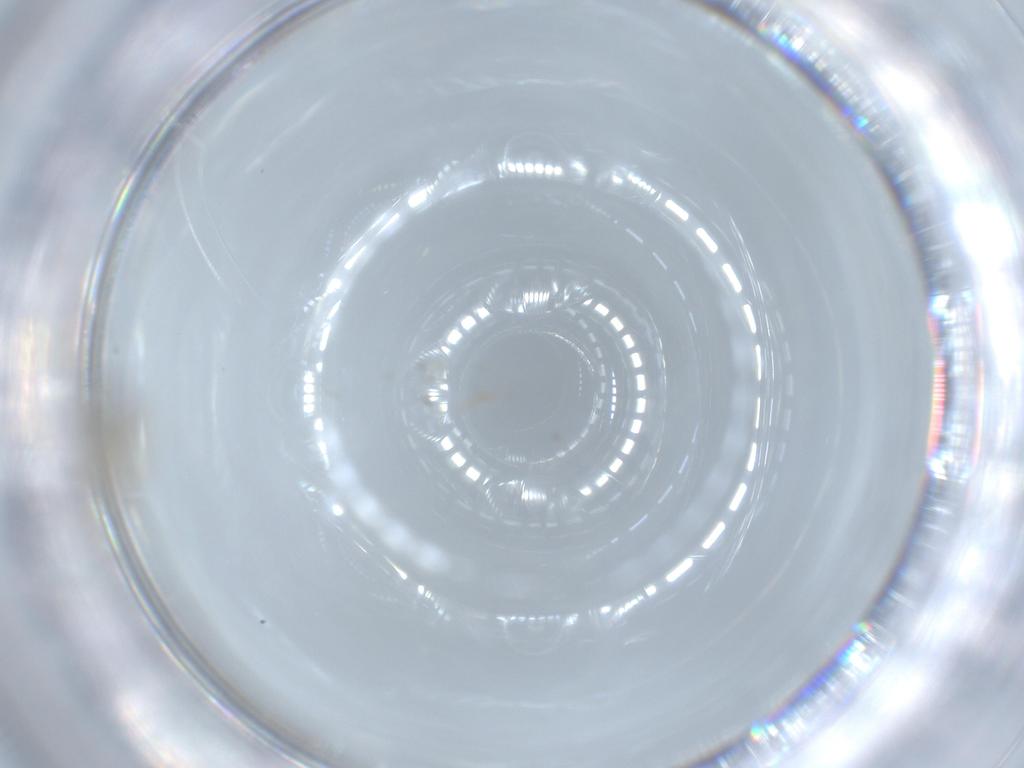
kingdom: Animalia
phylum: Arthropoda
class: Insecta
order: Diptera
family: Cecidomyiidae
